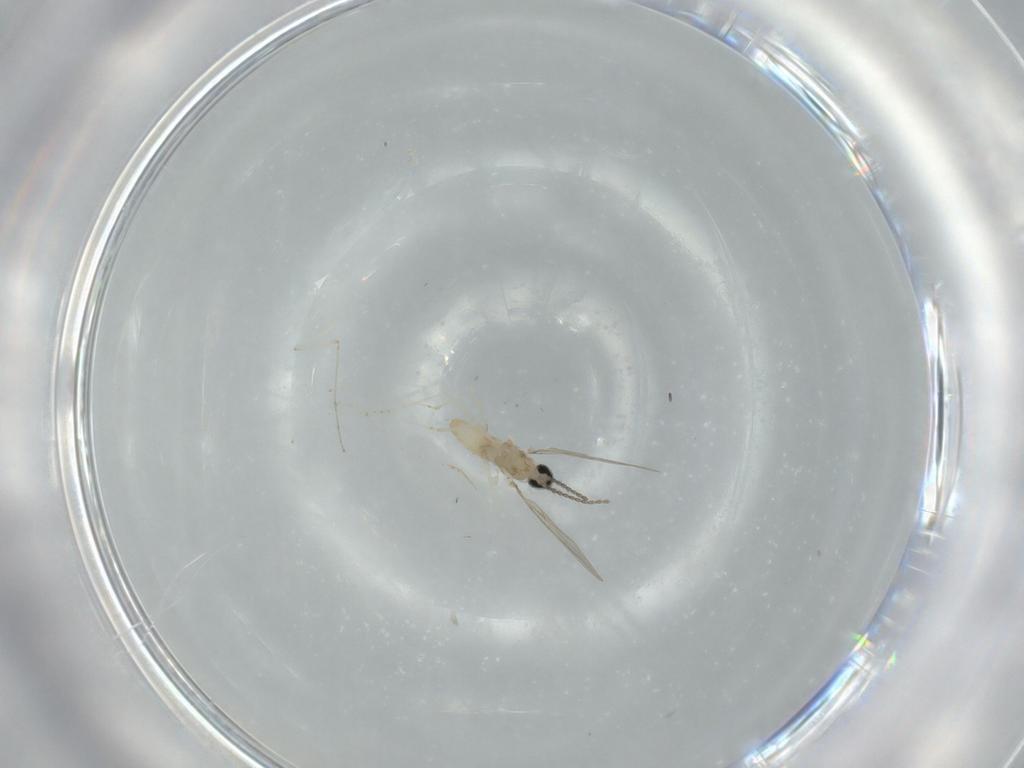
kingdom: Animalia
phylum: Arthropoda
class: Insecta
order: Diptera
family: Cecidomyiidae
